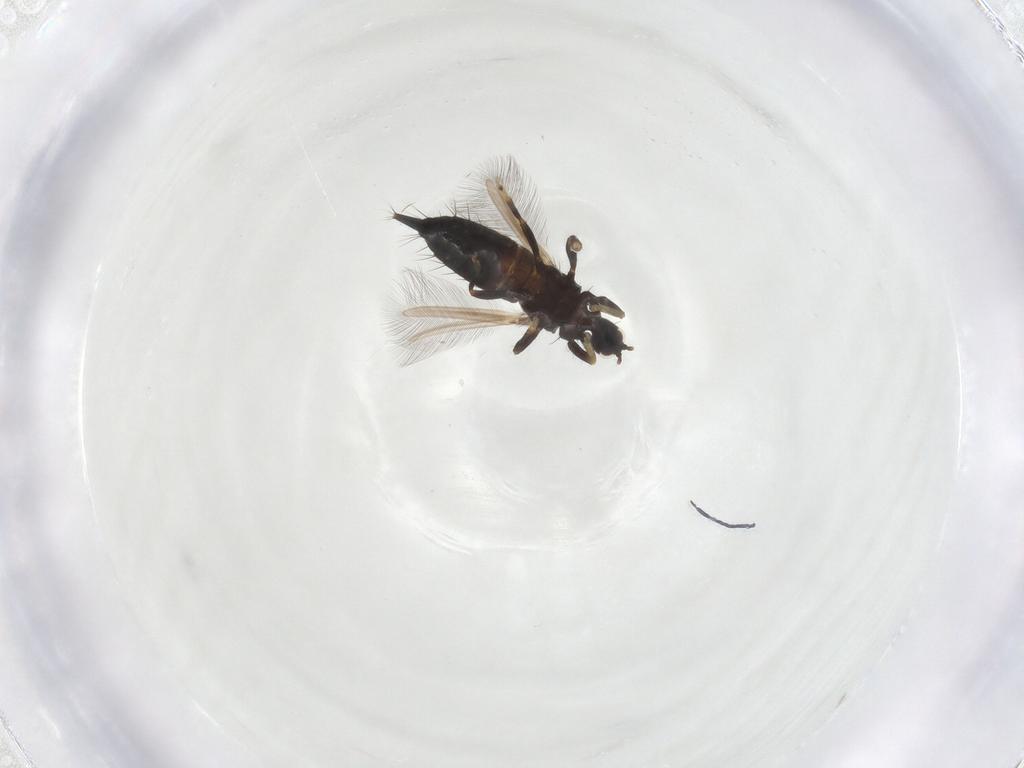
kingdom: Animalia
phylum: Arthropoda
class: Insecta
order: Thysanoptera
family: Phlaeothripidae
